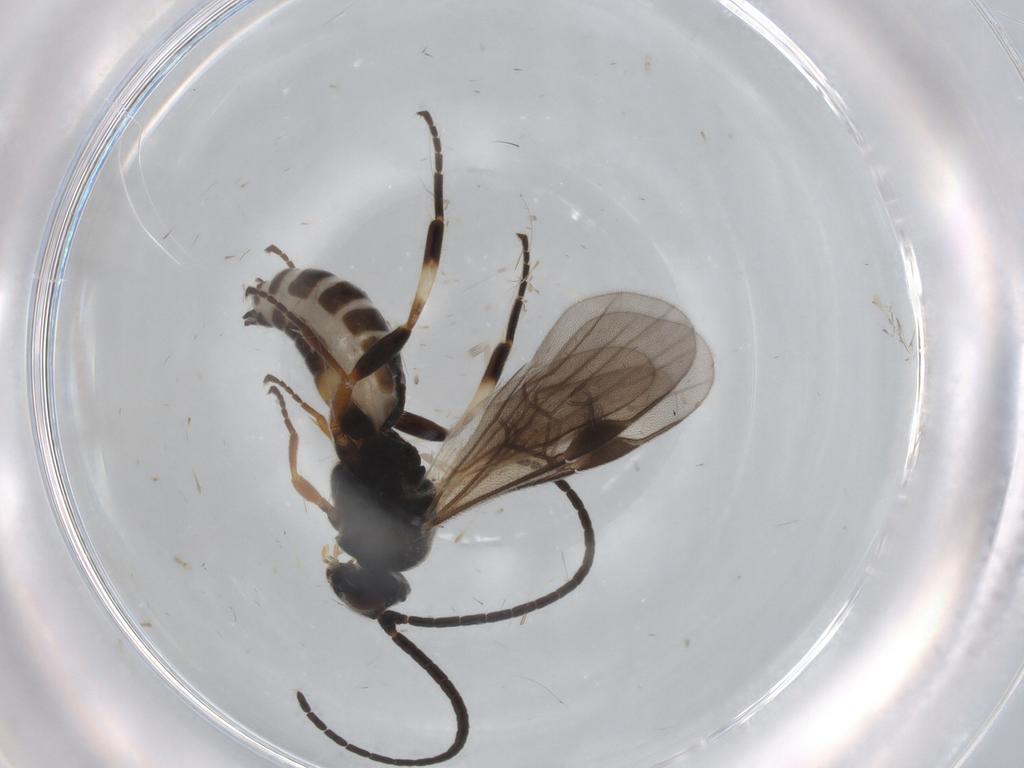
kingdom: Animalia
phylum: Arthropoda
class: Insecta
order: Hymenoptera
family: Braconidae
